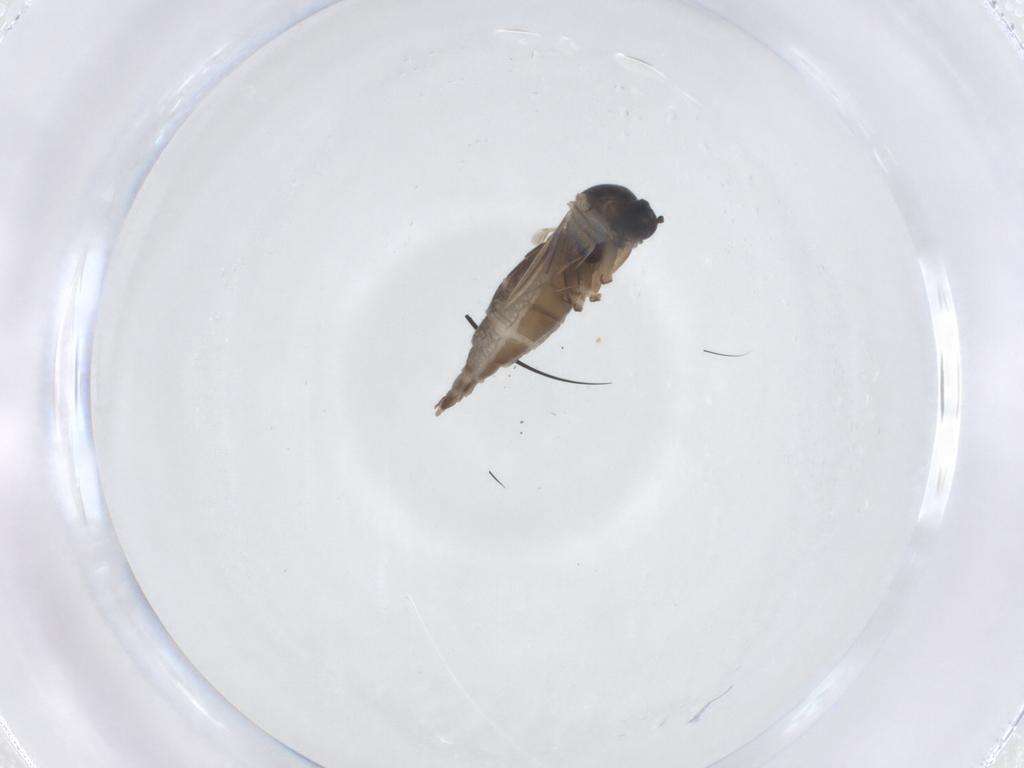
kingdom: Animalia
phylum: Arthropoda
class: Insecta
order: Diptera
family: Sciaridae
